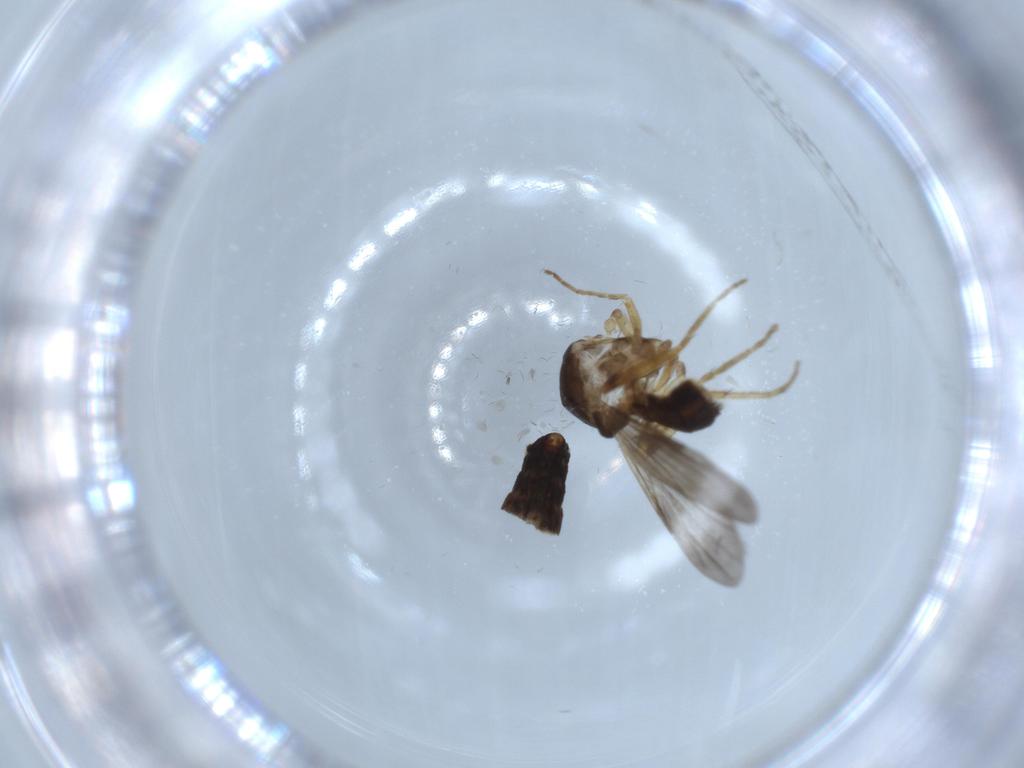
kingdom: Animalia
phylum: Arthropoda
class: Insecta
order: Diptera
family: Ceratopogonidae
